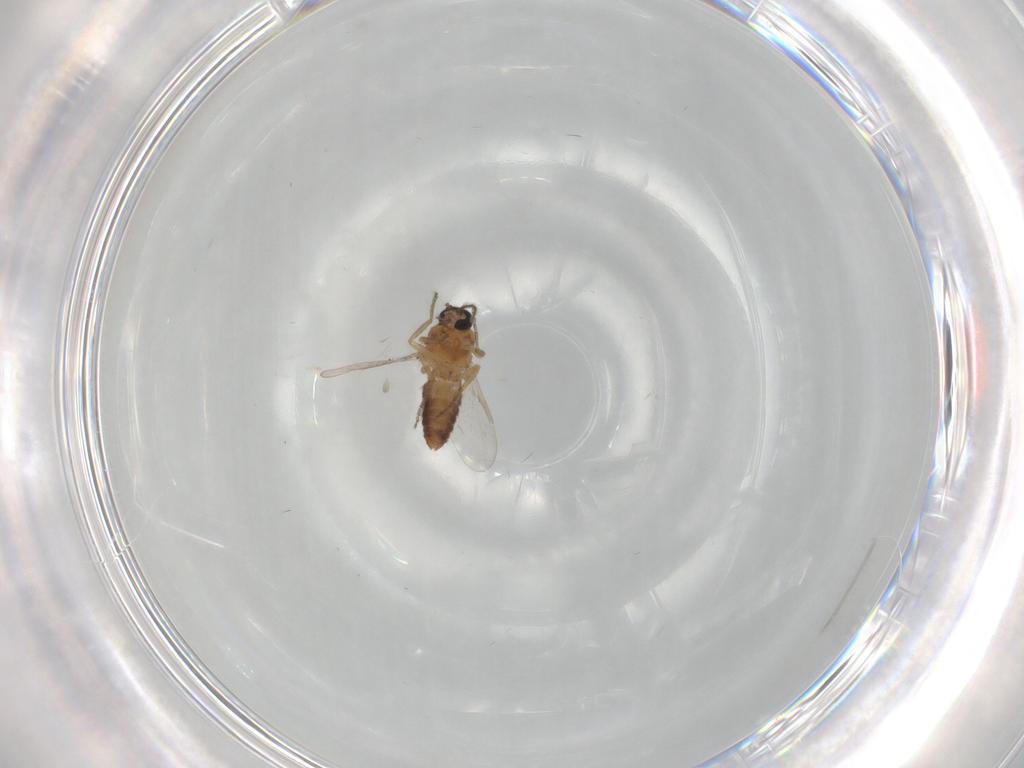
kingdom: Animalia
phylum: Arthropoda
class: Insecta
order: Diptera
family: Ceratopogonidae
